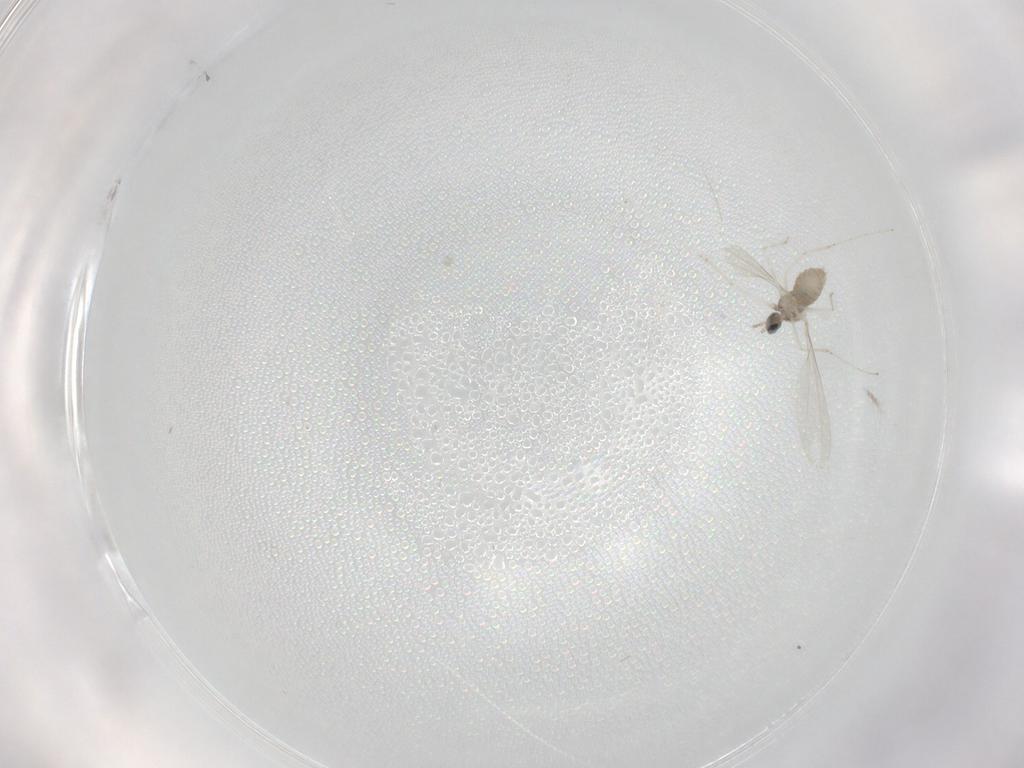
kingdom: Animalia
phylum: Arthropoda
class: Insecta
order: Diptera
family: Cecidomyiidae
